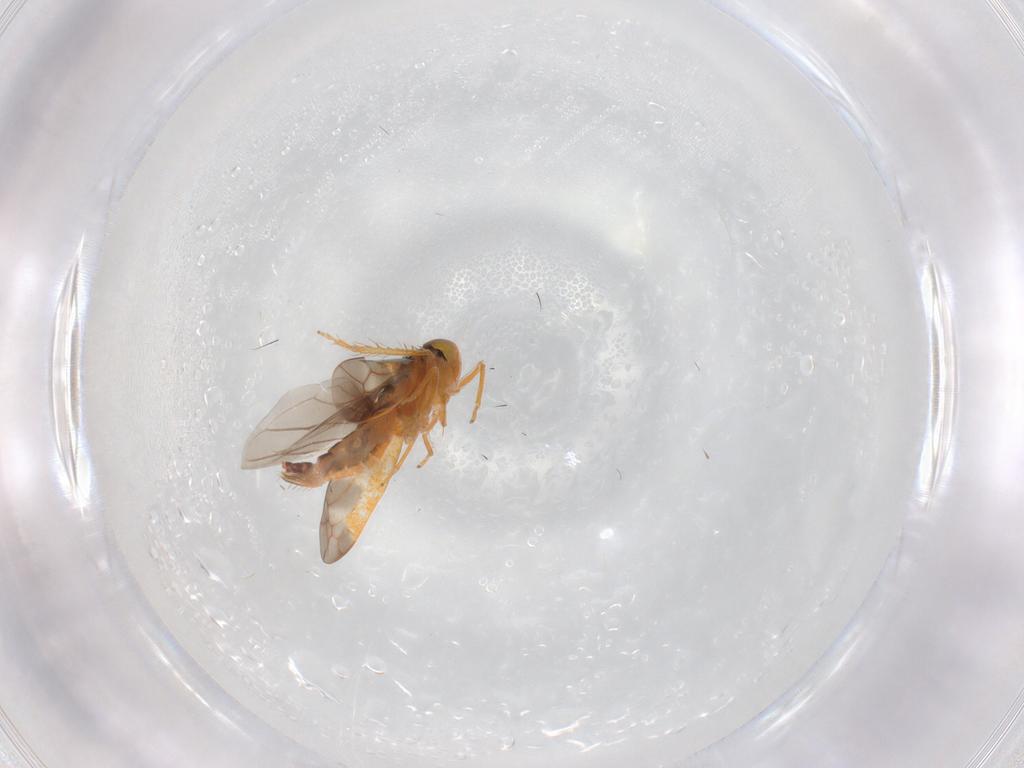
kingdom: Animalia
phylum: Arthropoda
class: Insecta
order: Hemiptera
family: Cicadellidae
